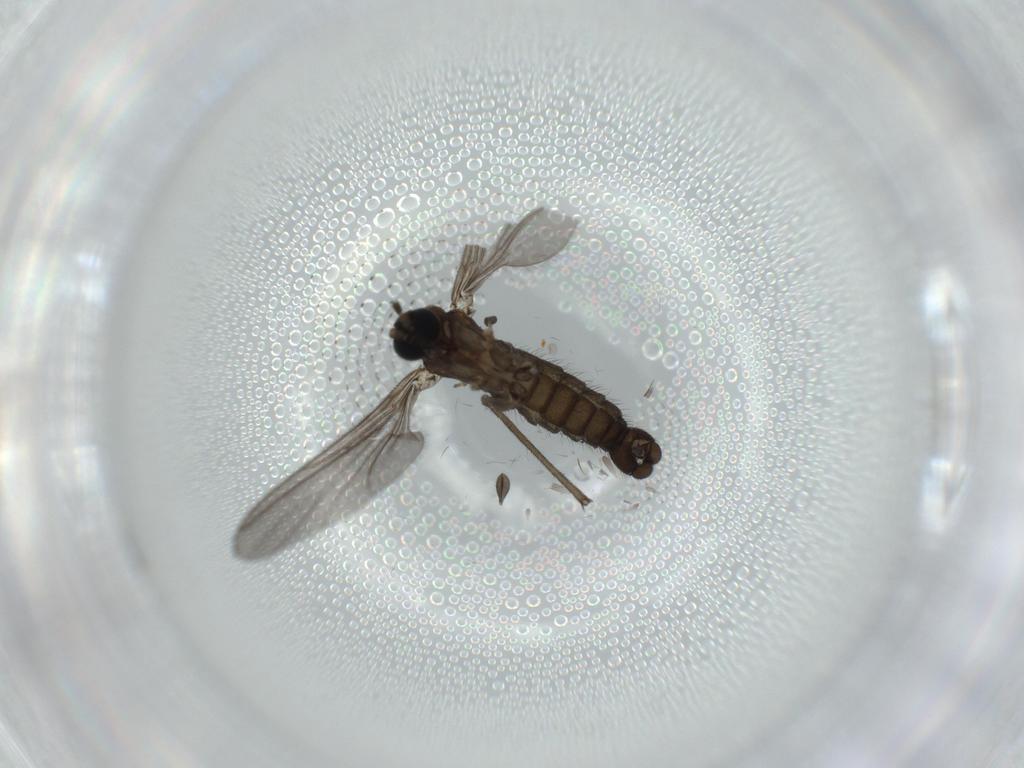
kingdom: Animalia
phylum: Arthropoda
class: Insecta
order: Diptera
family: Sciaridae
